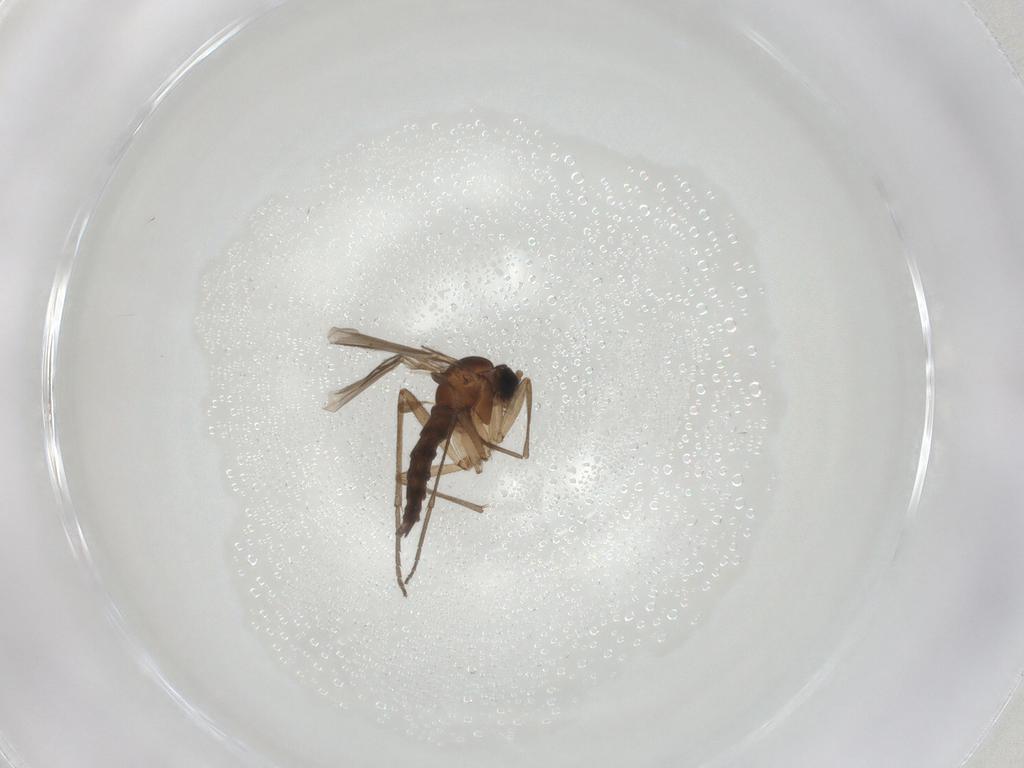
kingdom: Animalia
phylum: Arthropoda
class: Insecta
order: Diptera
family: Sciaridae
